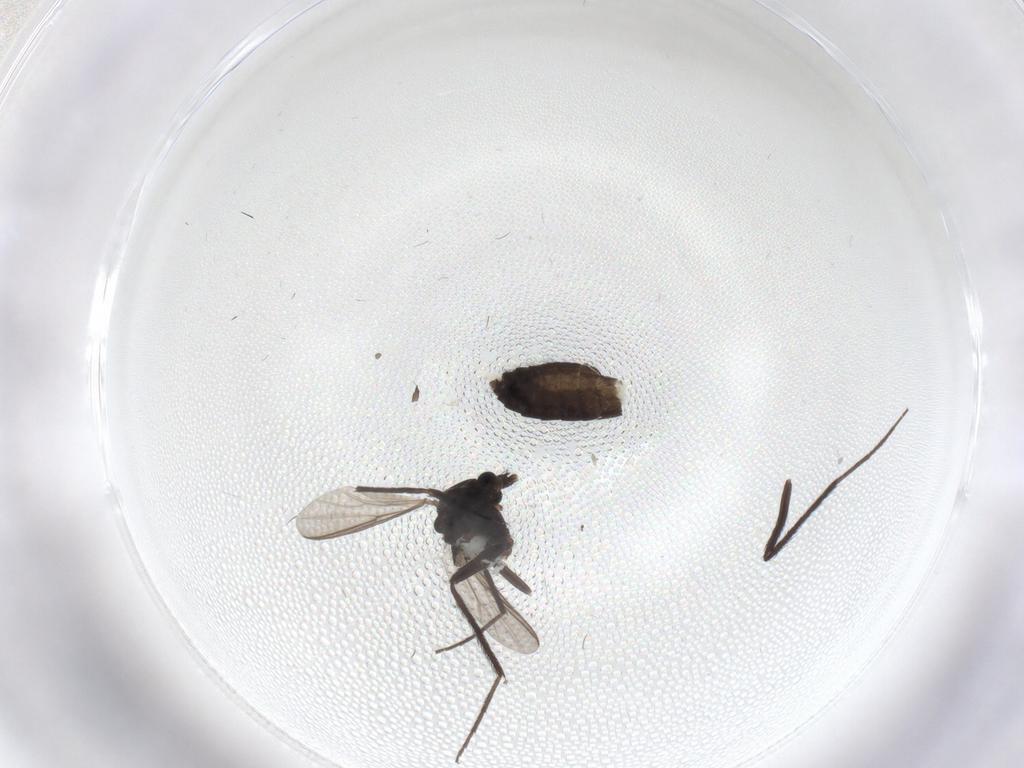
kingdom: Animalia
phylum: Arthropoda
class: Insecta
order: Diptera
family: Chironomidae
